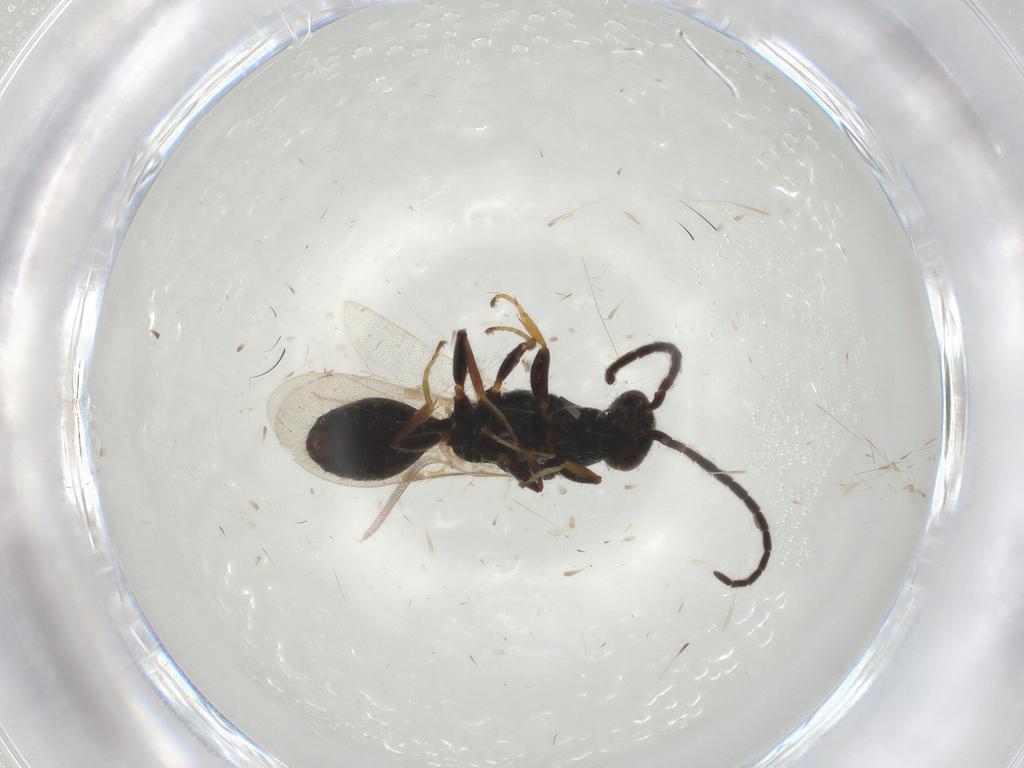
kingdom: Animalia
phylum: Arthropoda
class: Insecta
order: Hymenoptera
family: Bethylidae
